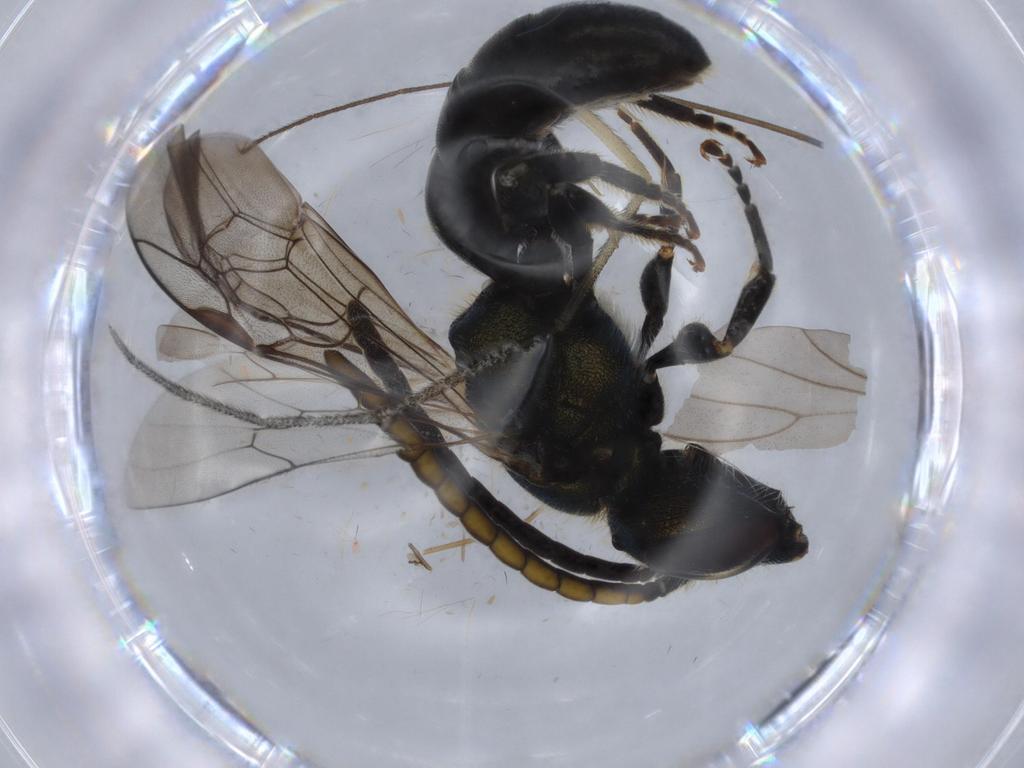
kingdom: Animalia
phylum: Arthropoda
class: Insecta
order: Hymenoptera
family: Halictidae
